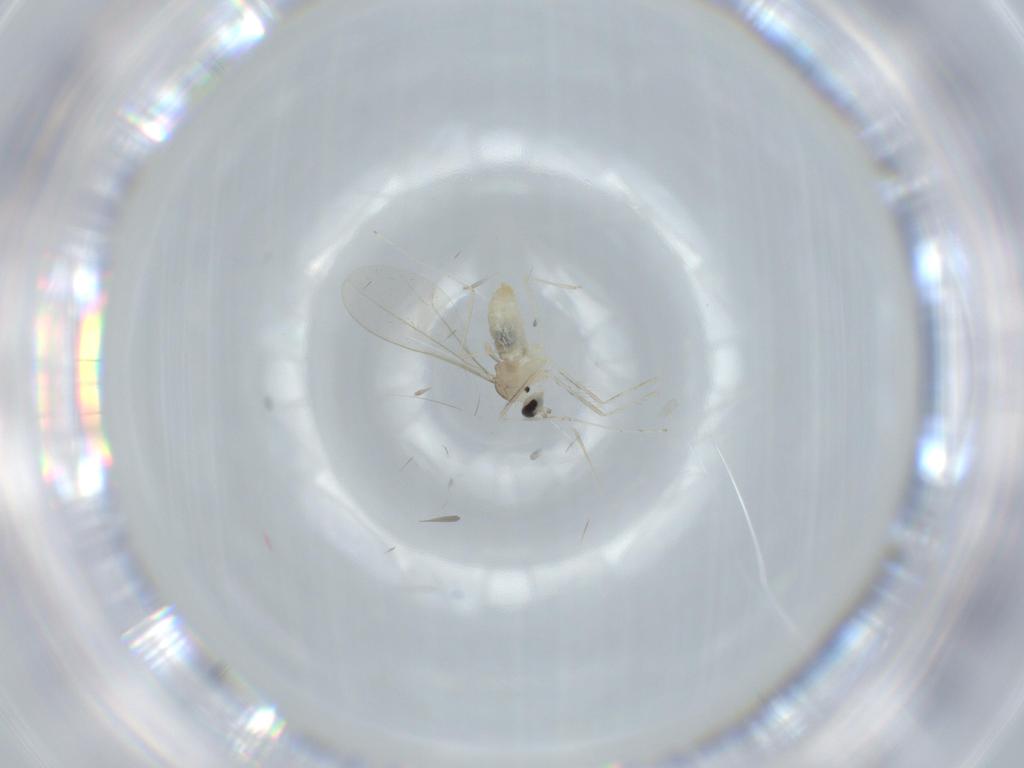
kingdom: Animalia
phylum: Arthropoda
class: Insecta
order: Diptera
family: Cecidomyiidae
